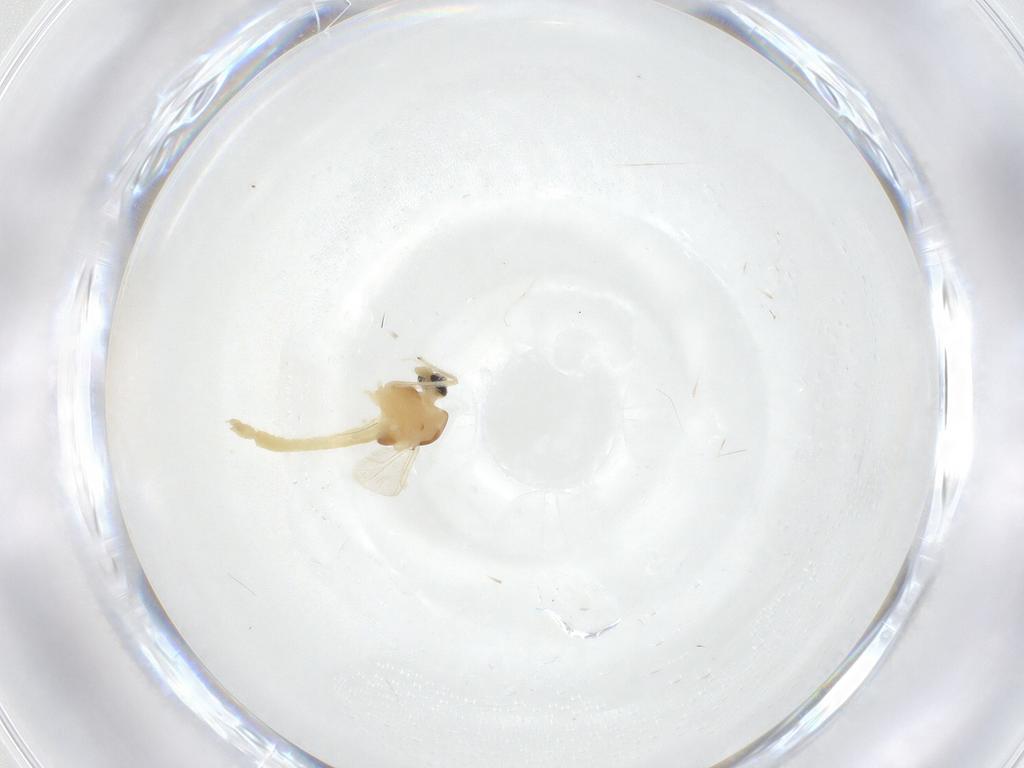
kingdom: Animalia
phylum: Arthropoda
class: Insecta
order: Diptera
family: Chironomidae
